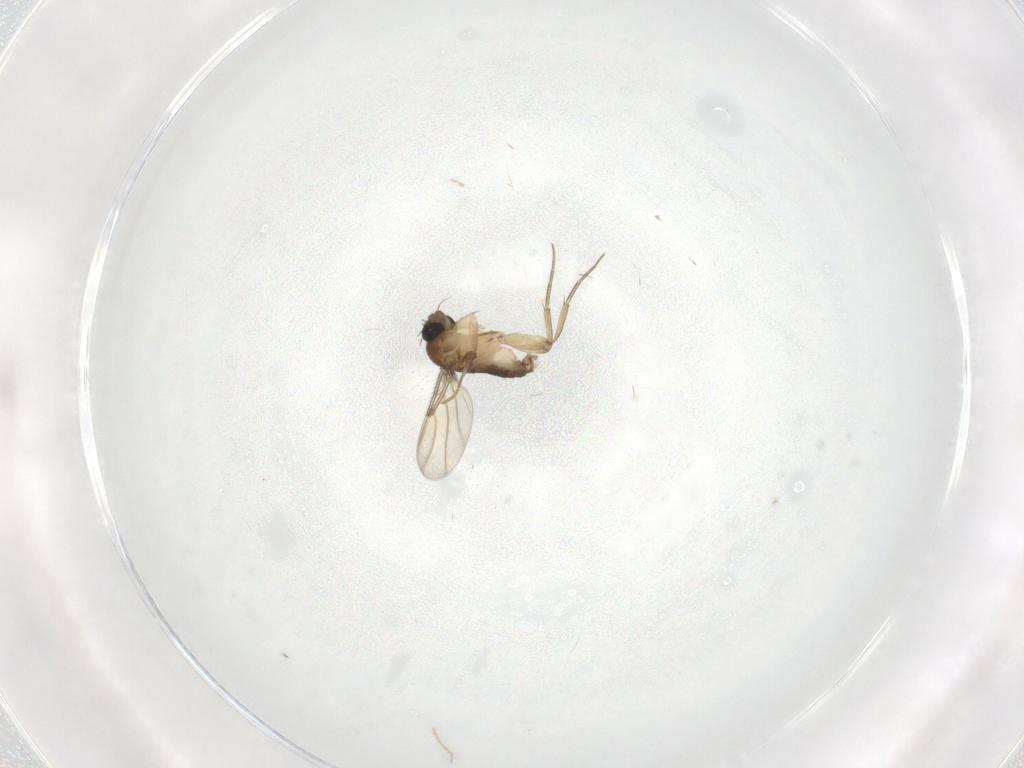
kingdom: Animalia
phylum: Arthropoda
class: Insecta
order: Diptera
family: Phoridae
